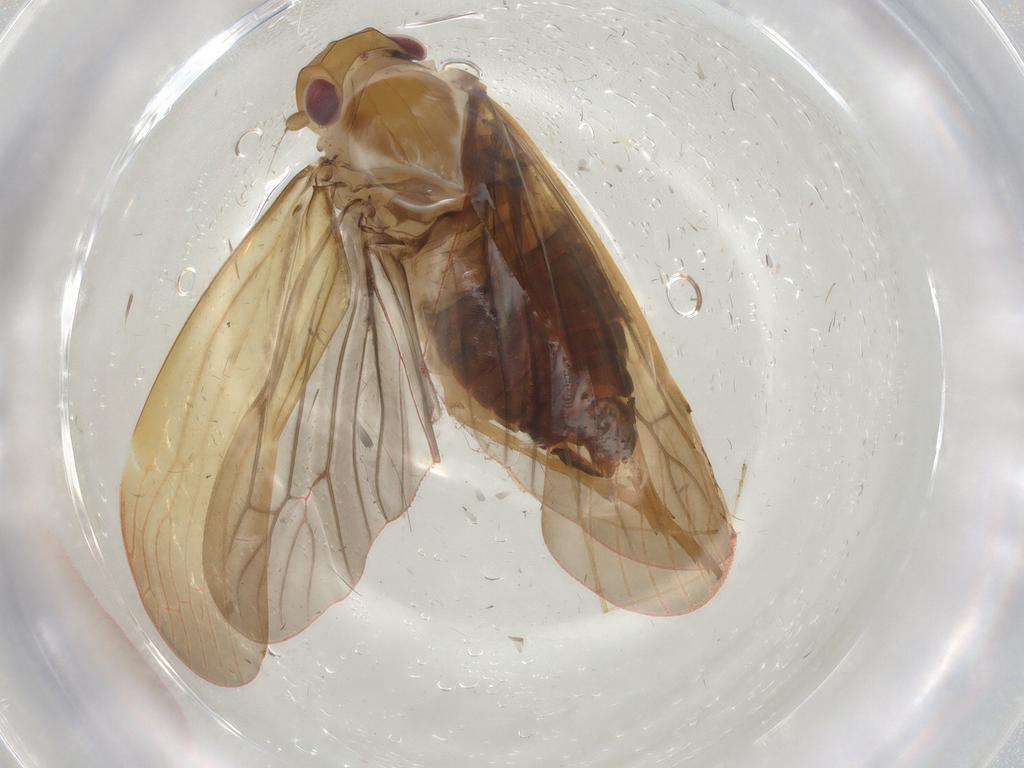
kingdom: Animalia
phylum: Arthropoda
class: Insecta
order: Hemiptera
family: Achilidae
